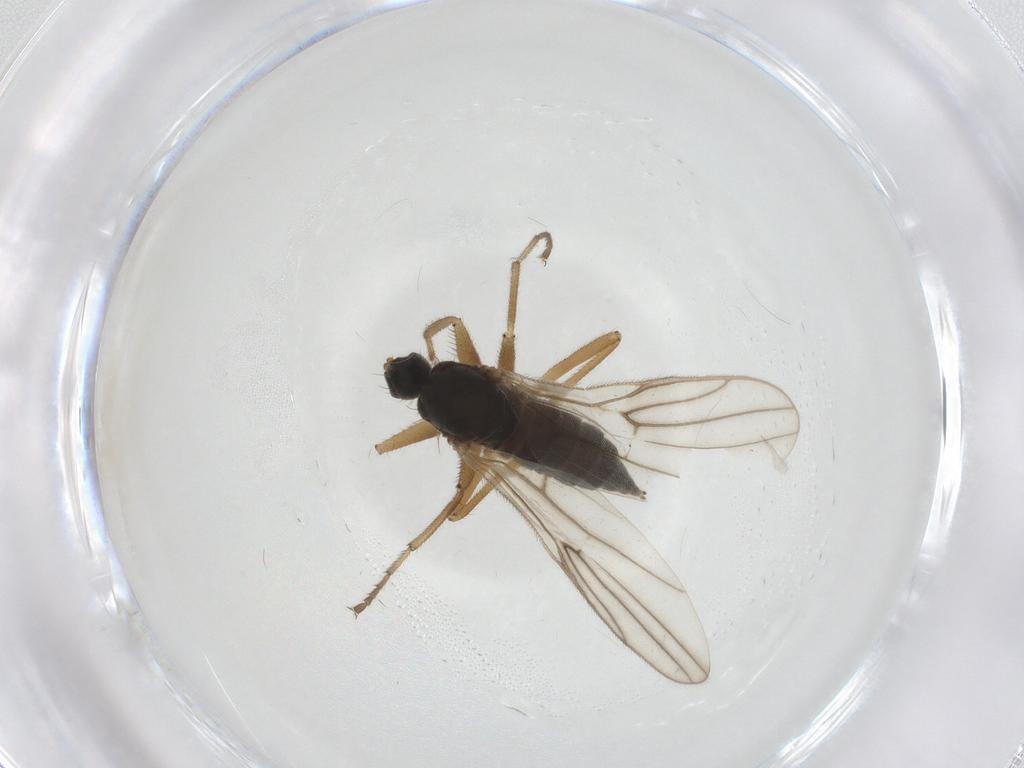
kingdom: Animalia
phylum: Arthropoda
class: Insecta
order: Diptera
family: Hybotidae
